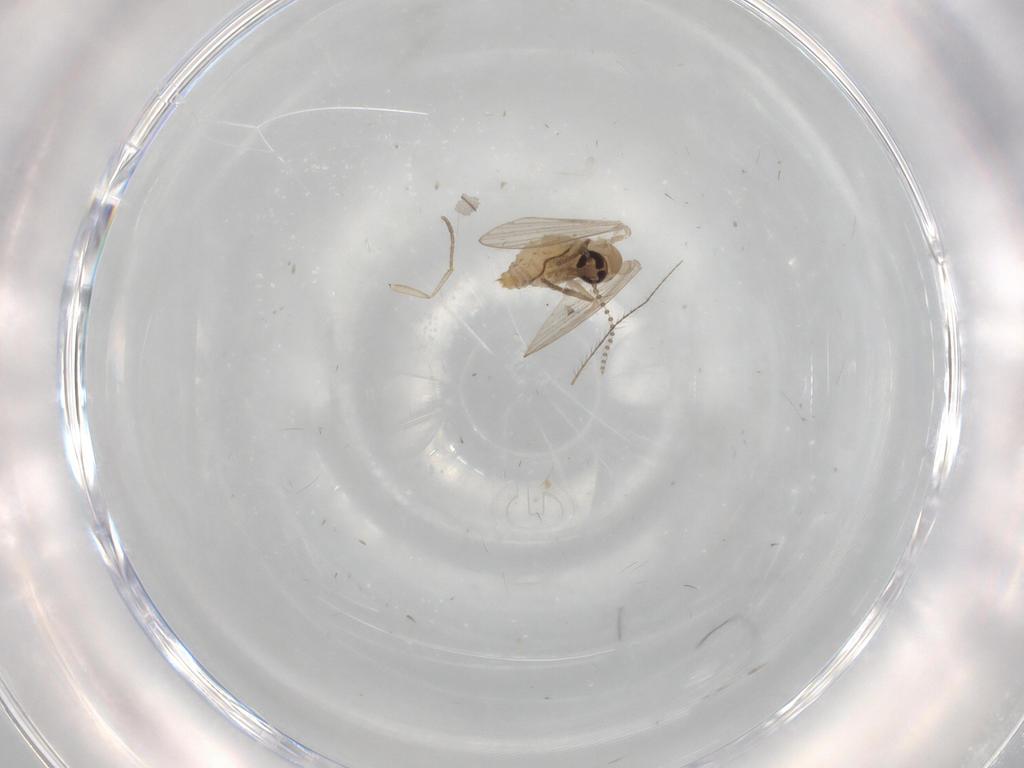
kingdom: Animalia
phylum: Arthropoda
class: Insecta
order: Diptera
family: Psychodidae
